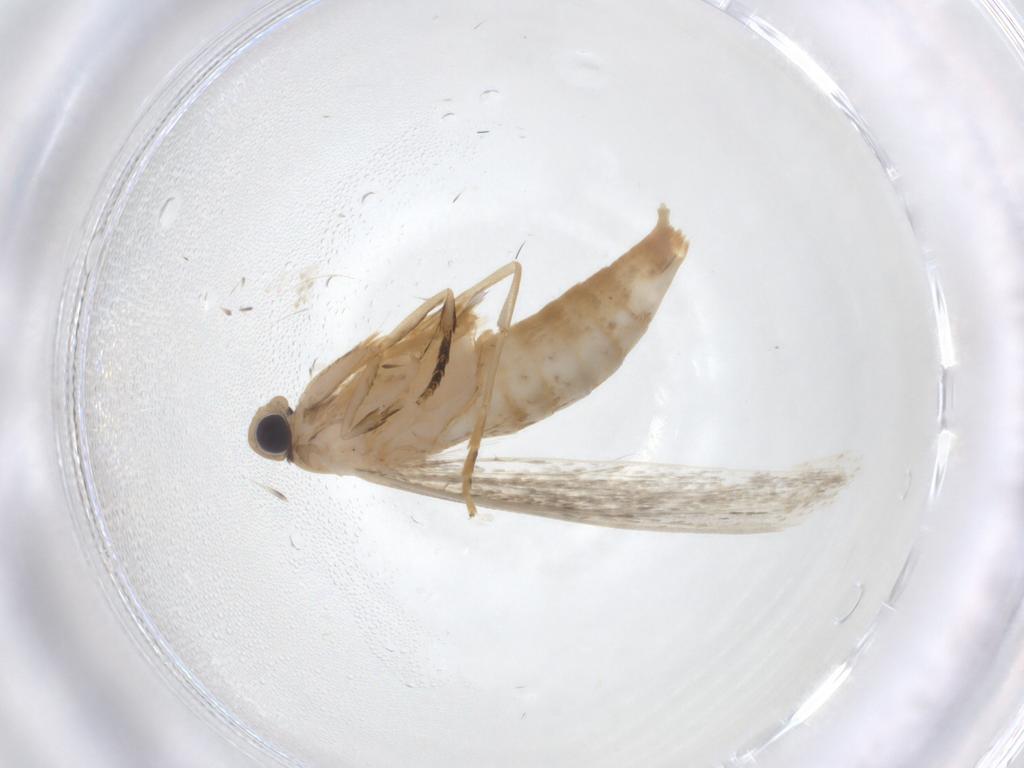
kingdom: Animalia
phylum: Arthropoda
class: Insecta
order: Lepidoptera
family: Tineidae
